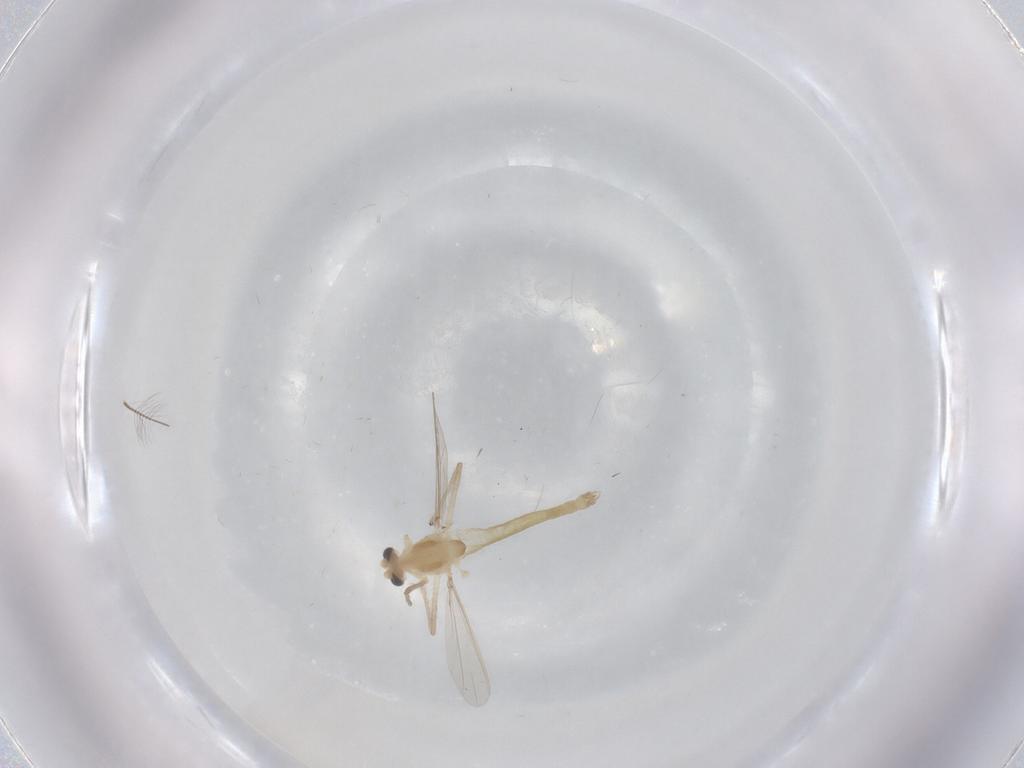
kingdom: Animalia
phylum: Arthropoda
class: Insecta
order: Diptera
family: Chironomidae
